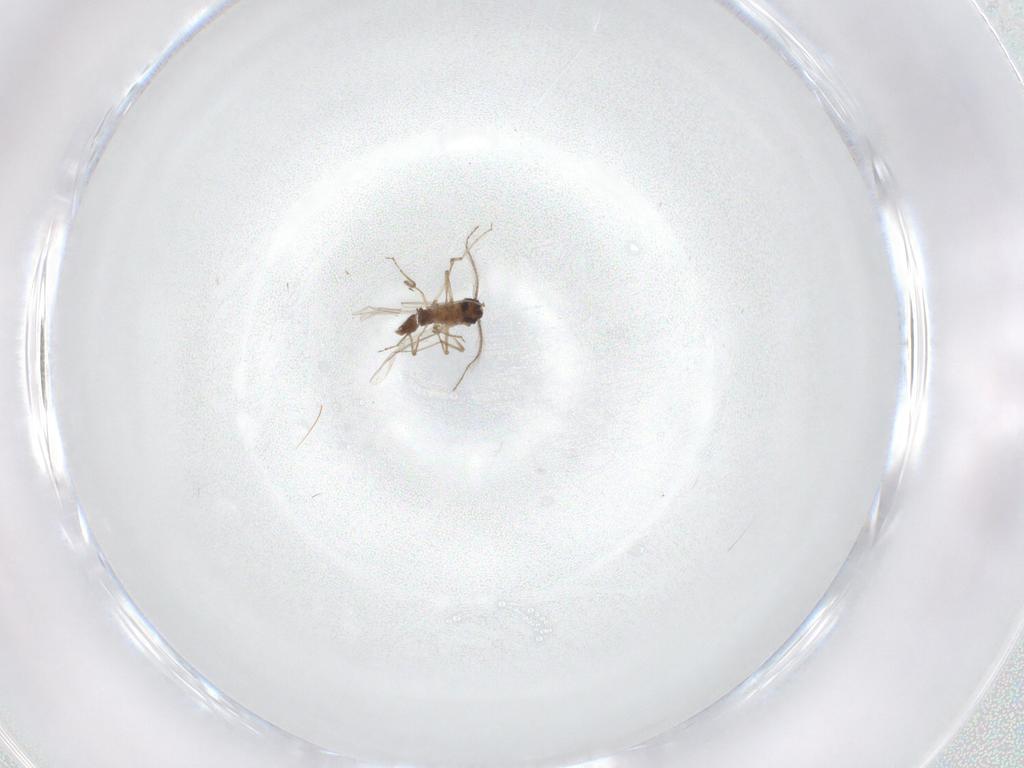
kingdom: Animalia
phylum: Arthropoda
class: Insecta
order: Diptera
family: Cecidomyiidae
